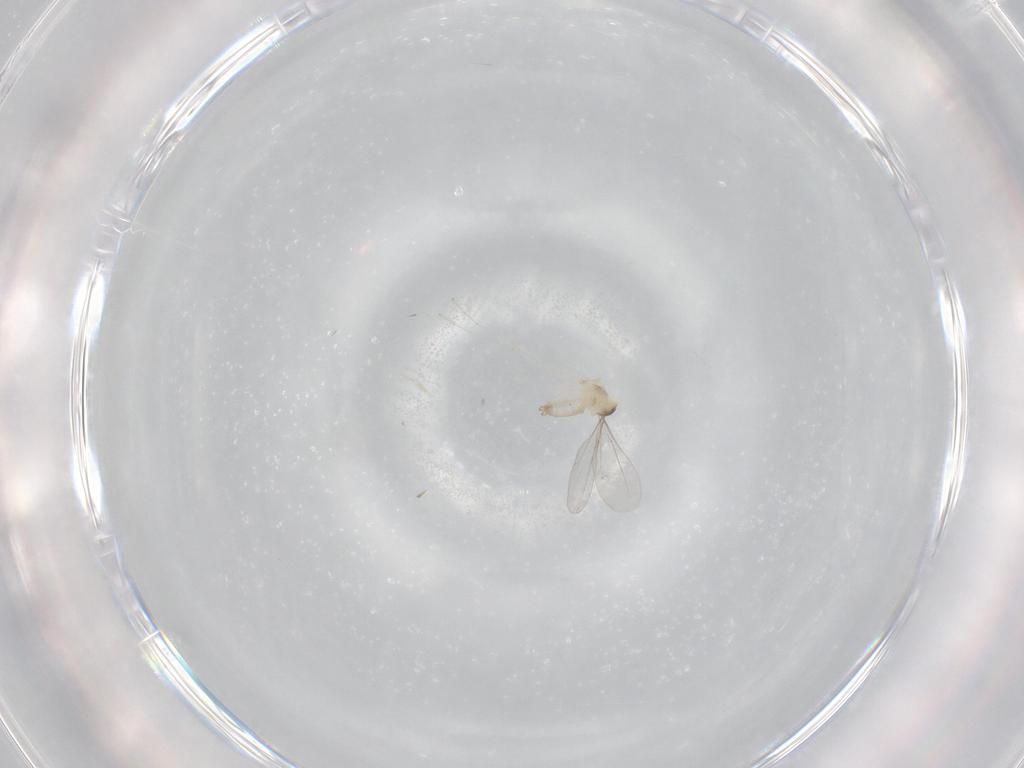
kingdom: Animalia
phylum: Arthropoda
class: Insecta
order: Diptera
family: Cecidomyiidae
